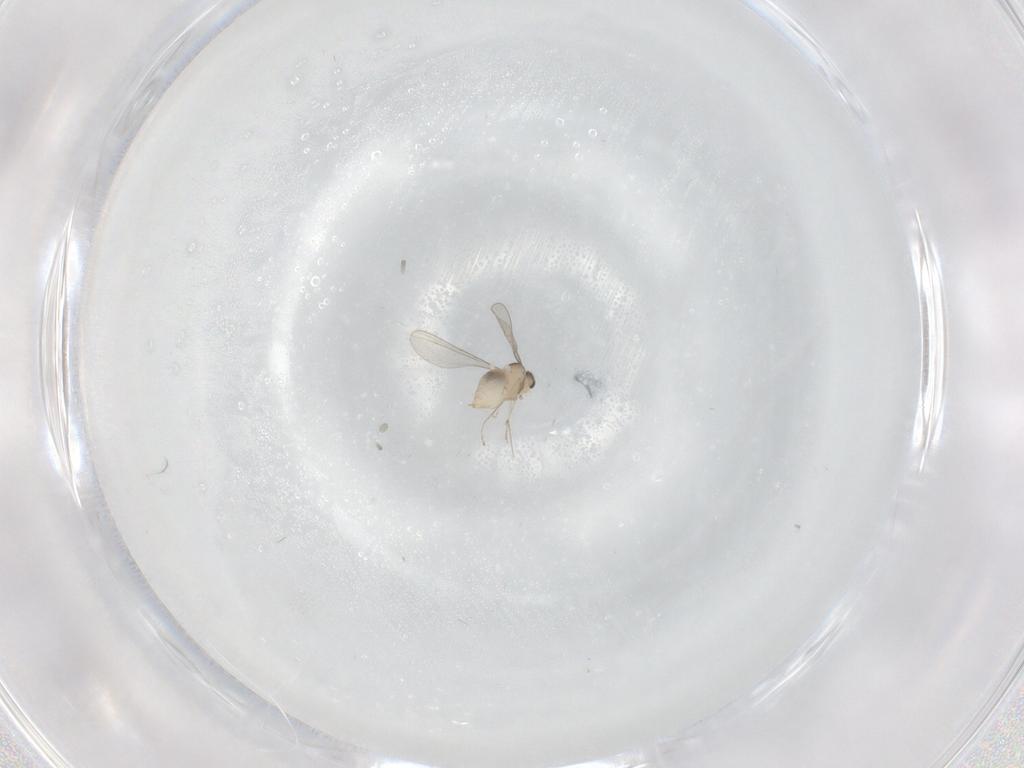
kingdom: Animalia
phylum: Arthropoda
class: Insecta
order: Diptera
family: Cecidomyiidae
